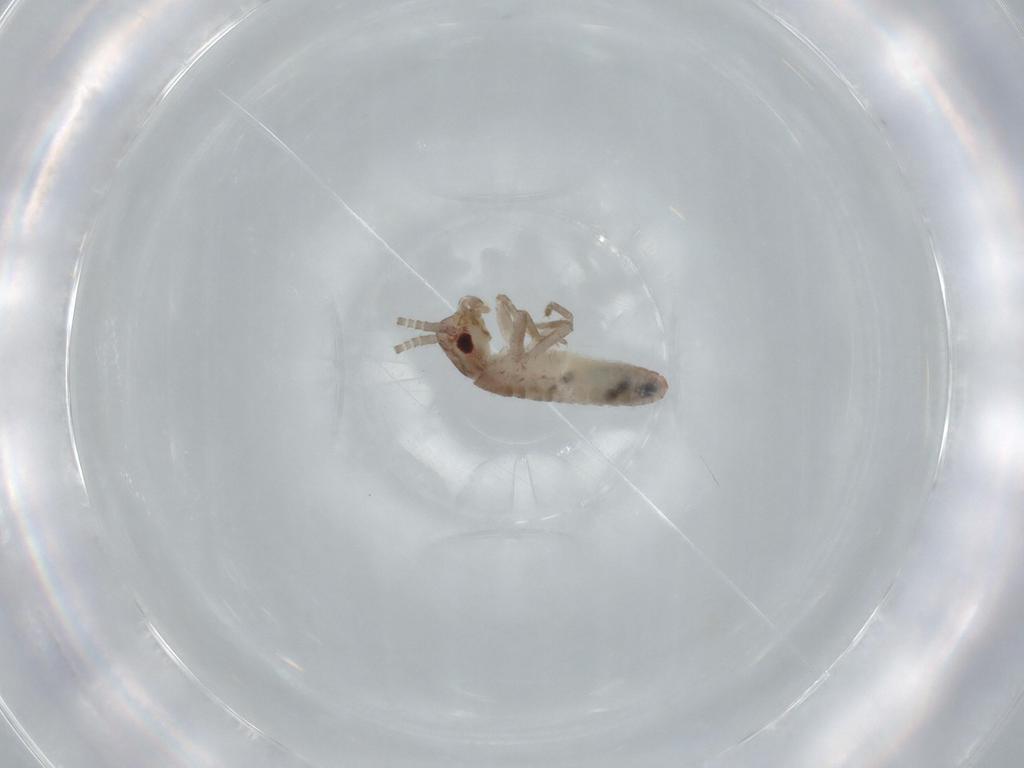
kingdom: Animalia
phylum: Arthropoda
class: Insecta
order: Orthoptera
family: Mogoplistidae
